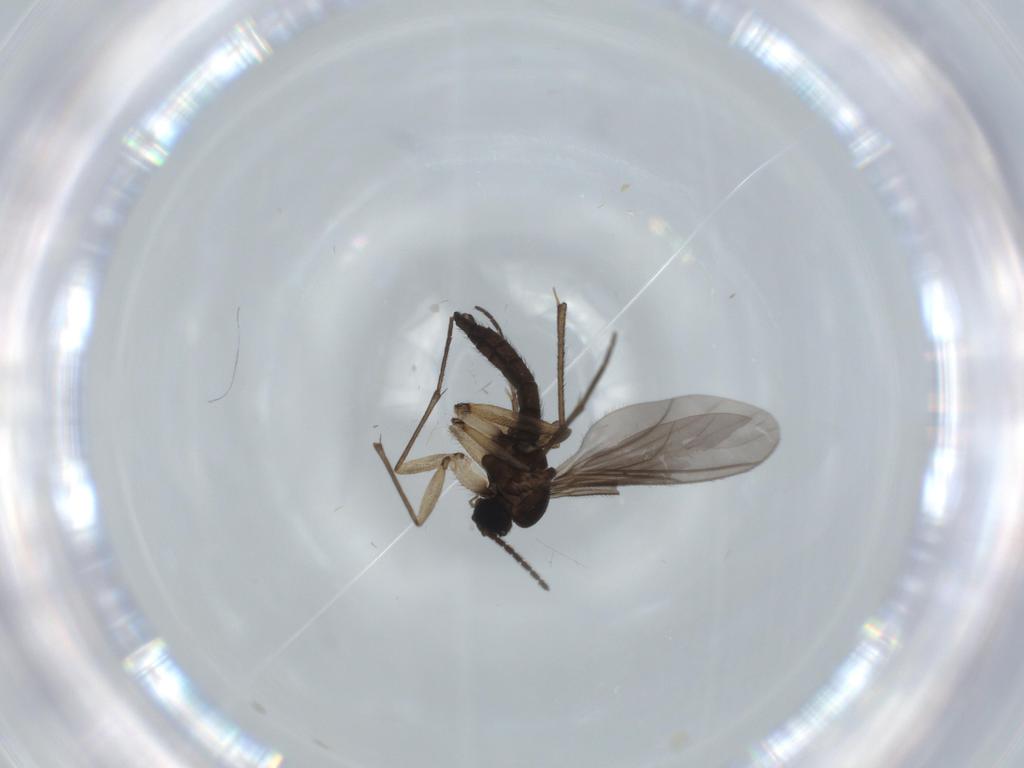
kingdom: Animalia
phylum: Arthropoda
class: Insecta
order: Diptera
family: Sciaridae
